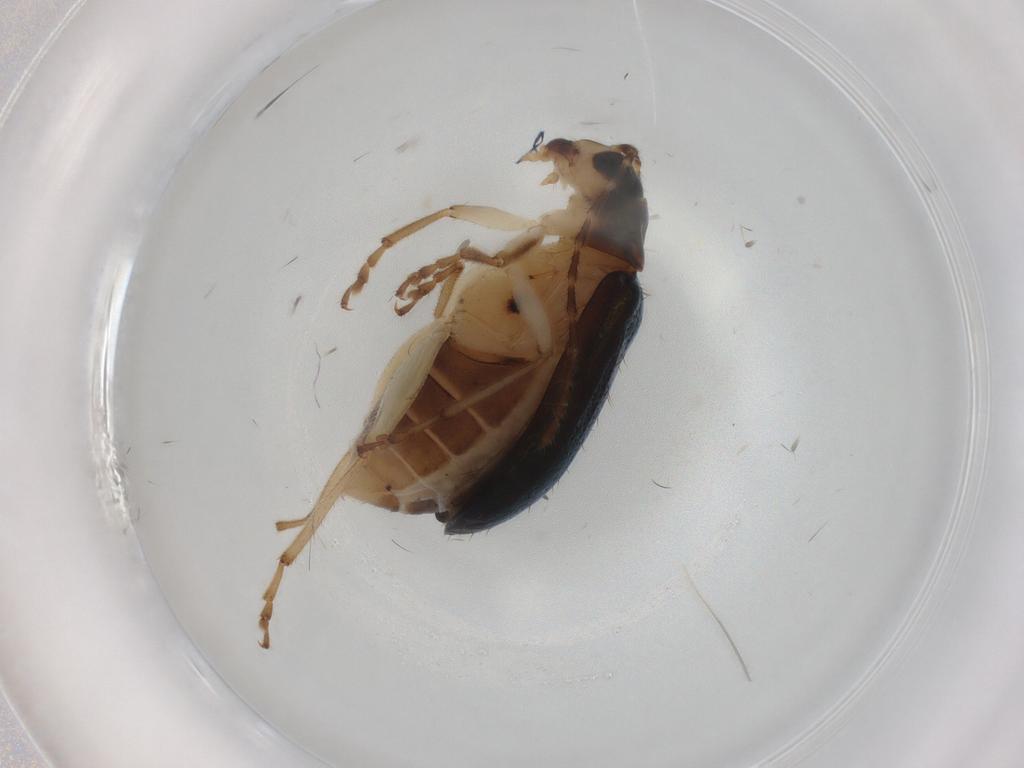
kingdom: Animalia
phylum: Arthropoda
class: Insecta
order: Coleoptera
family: Chrysomelidae
